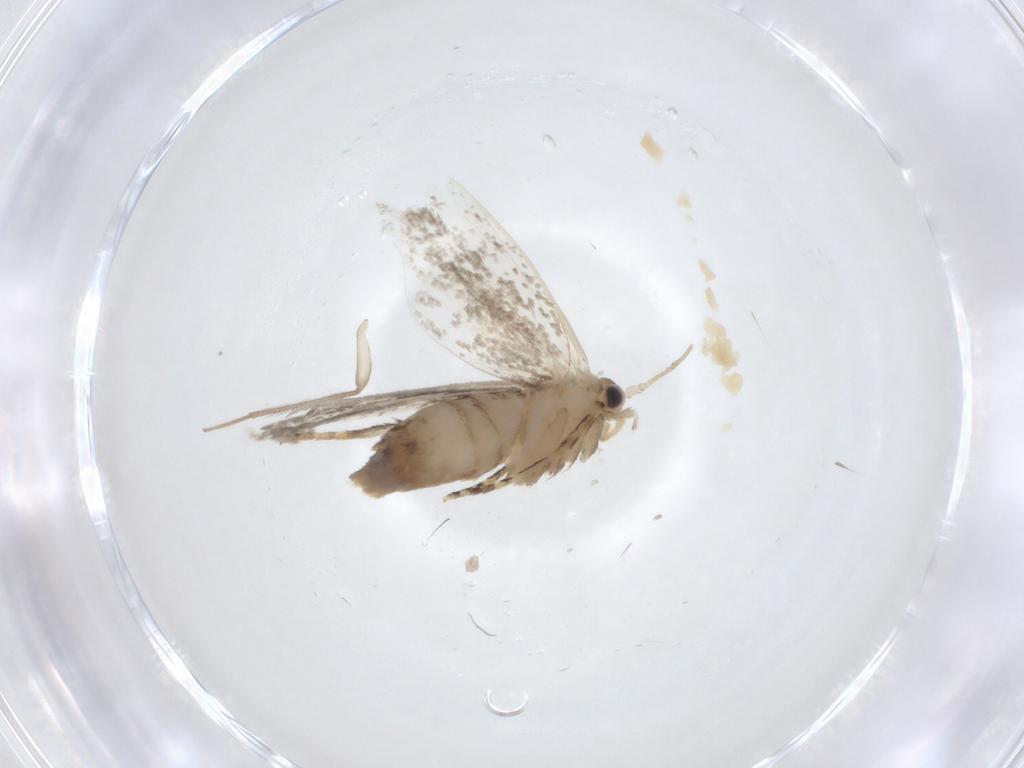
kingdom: Animalia
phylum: Arthropoda
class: Insecta
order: Lepidoptera
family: Tineidae
